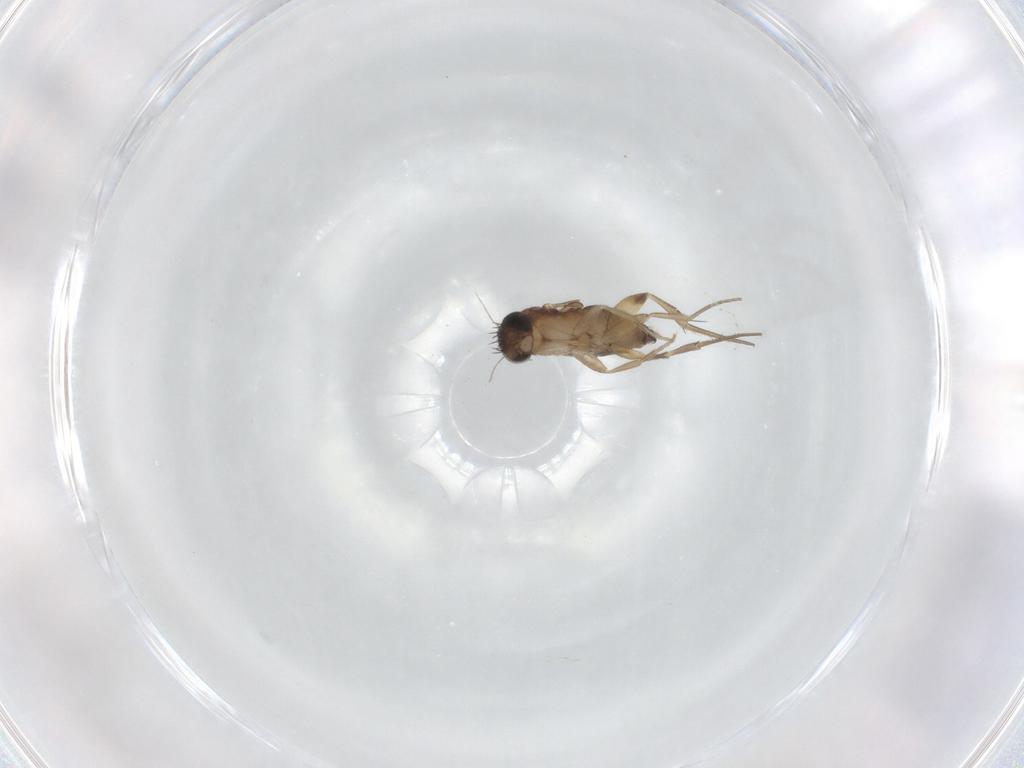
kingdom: Animalia
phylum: Arthropoda
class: Insecta
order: Diptera
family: Phoridae
